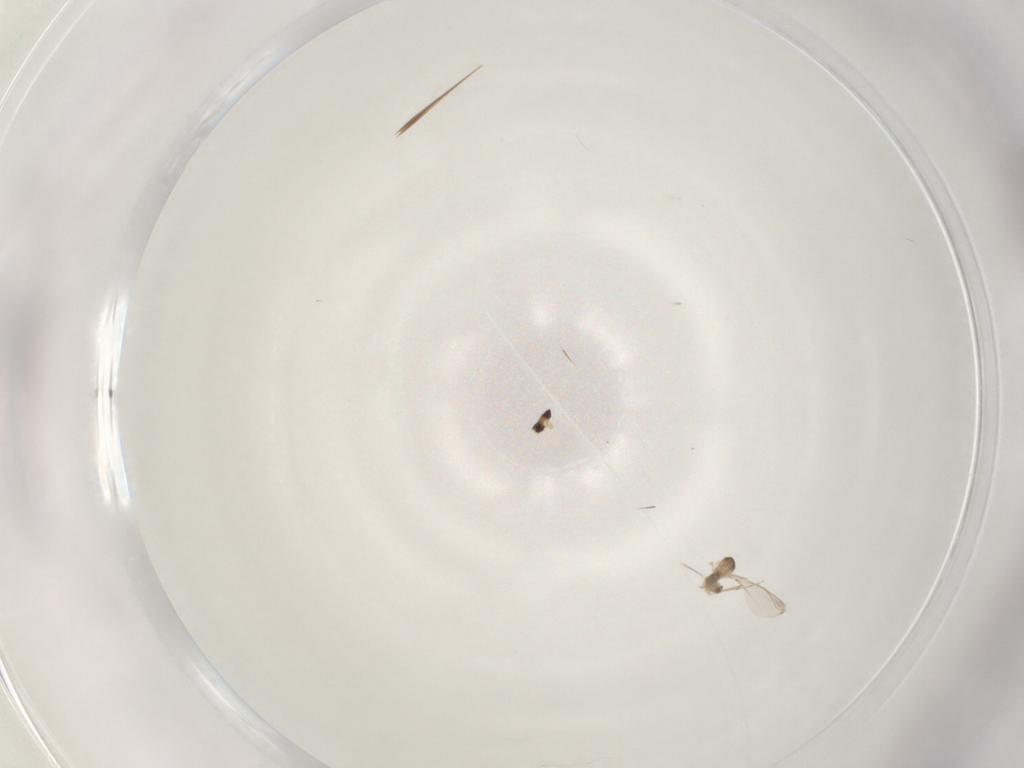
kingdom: Animalia
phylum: Arthropoda
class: Insecta
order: Diptera
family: Cecidomyiidae
